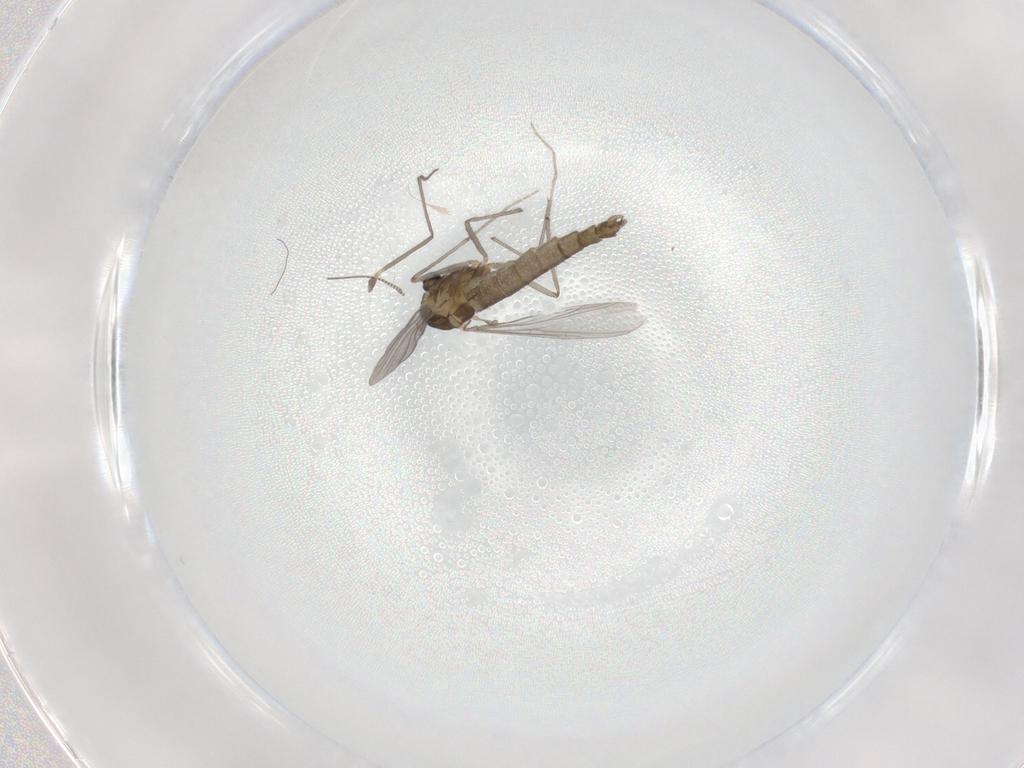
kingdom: Animalia
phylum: Arthropoda
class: Insecta
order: Diptera
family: Chironomidae
